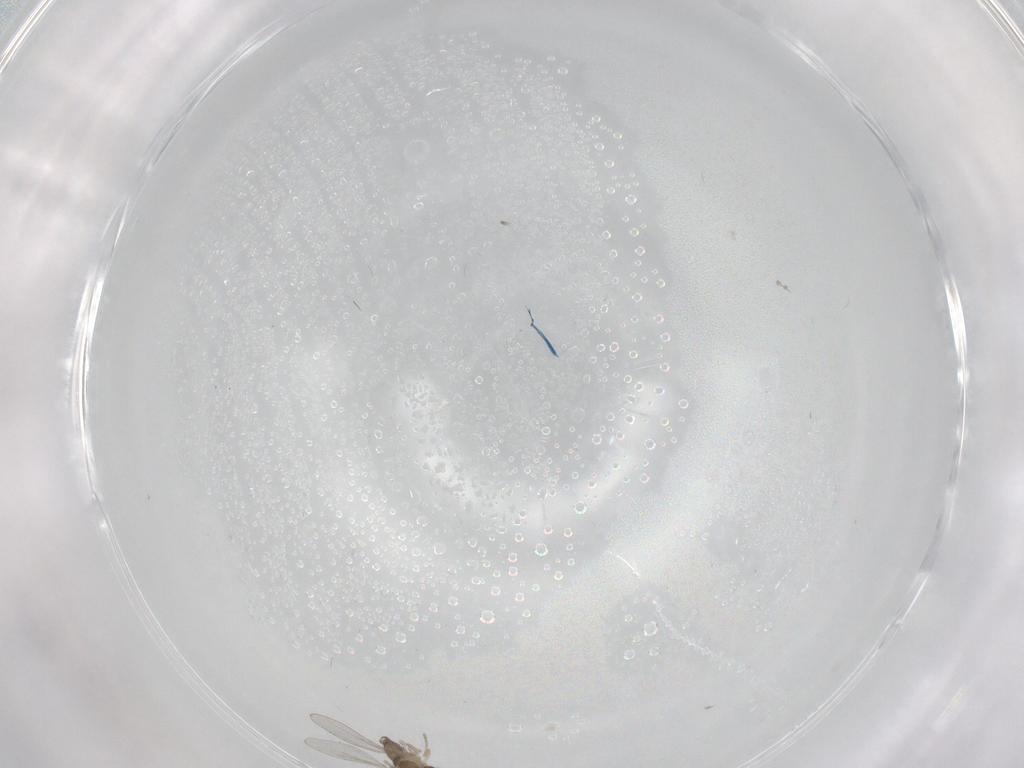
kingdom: Animalia
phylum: Arthropoda
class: Insecta
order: Diptera
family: Cecidomyiidae
